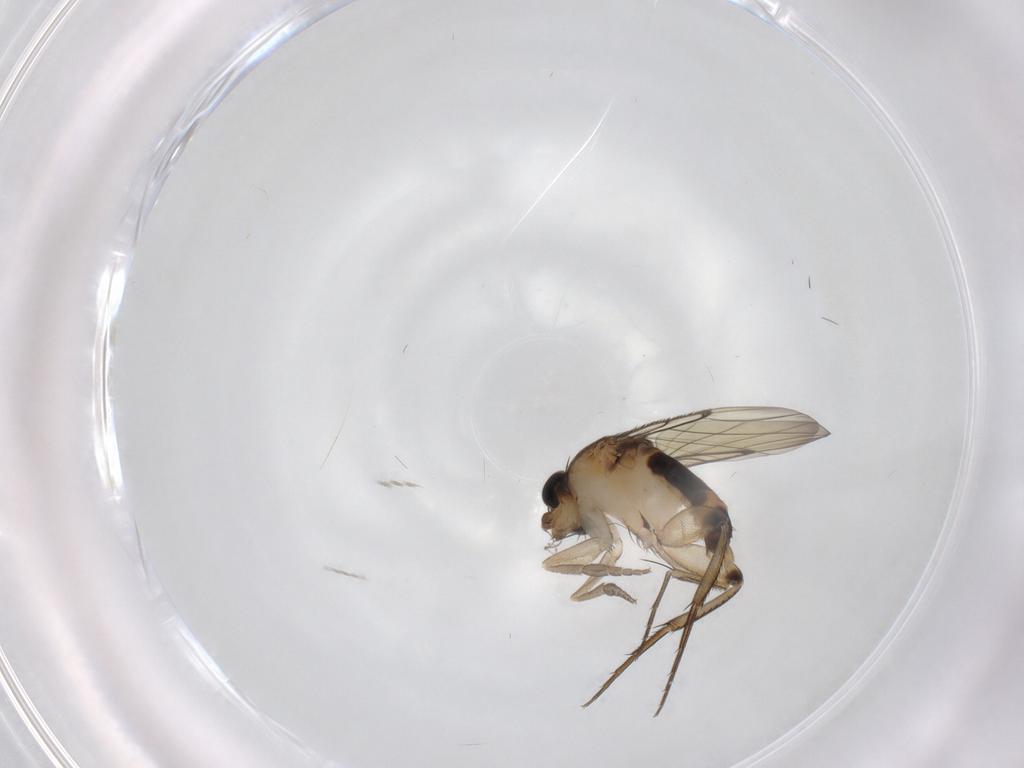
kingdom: Animalia
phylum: Arthropoda
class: Insecta
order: Diptera
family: Phoridae
